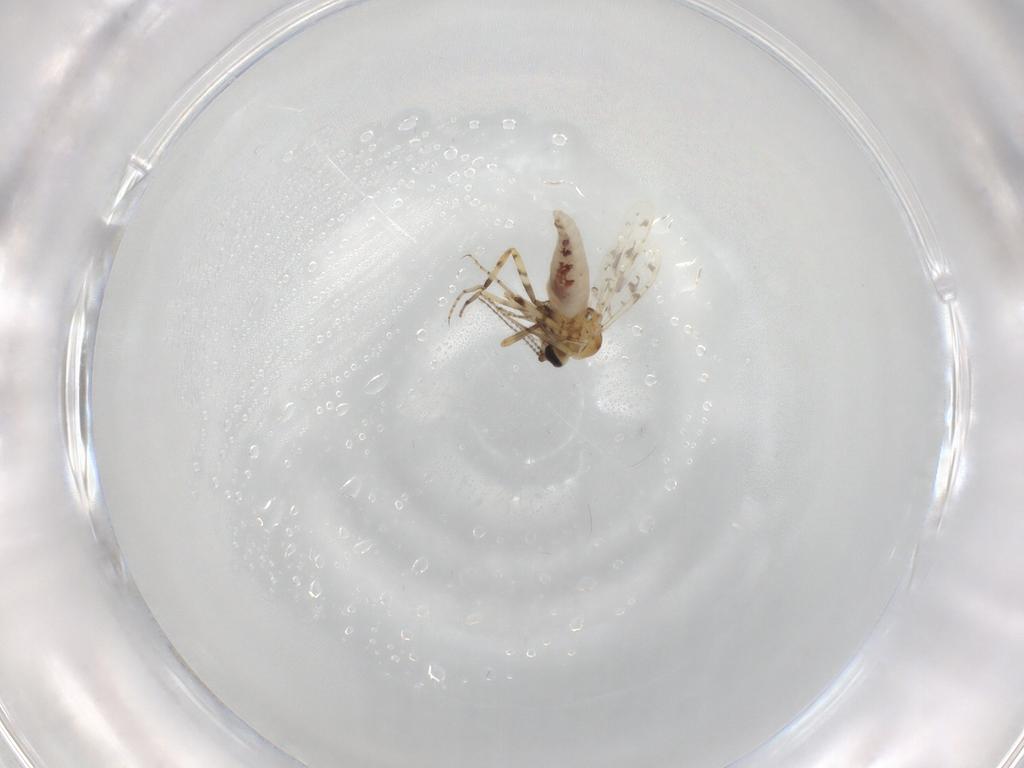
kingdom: Animalia
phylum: Arthropoda
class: Insecta
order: Diptera
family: Ceratopogonidae
